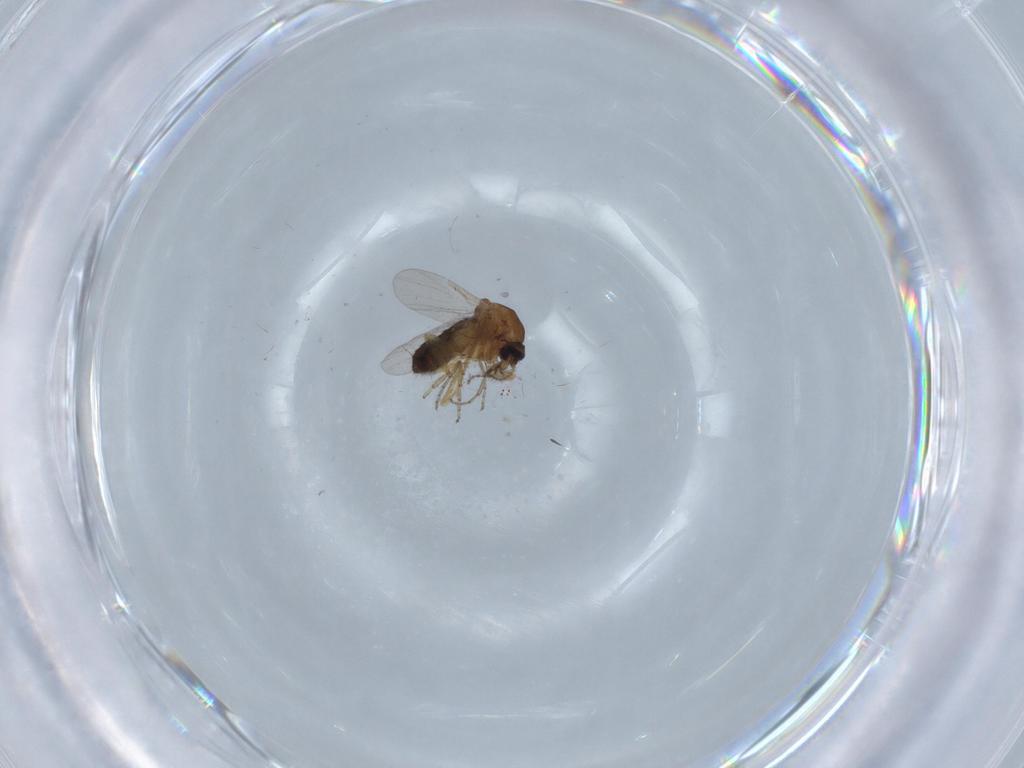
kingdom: Animalia
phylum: Arthropoda
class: Insecta
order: Diptera
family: Ceratopogonidae
